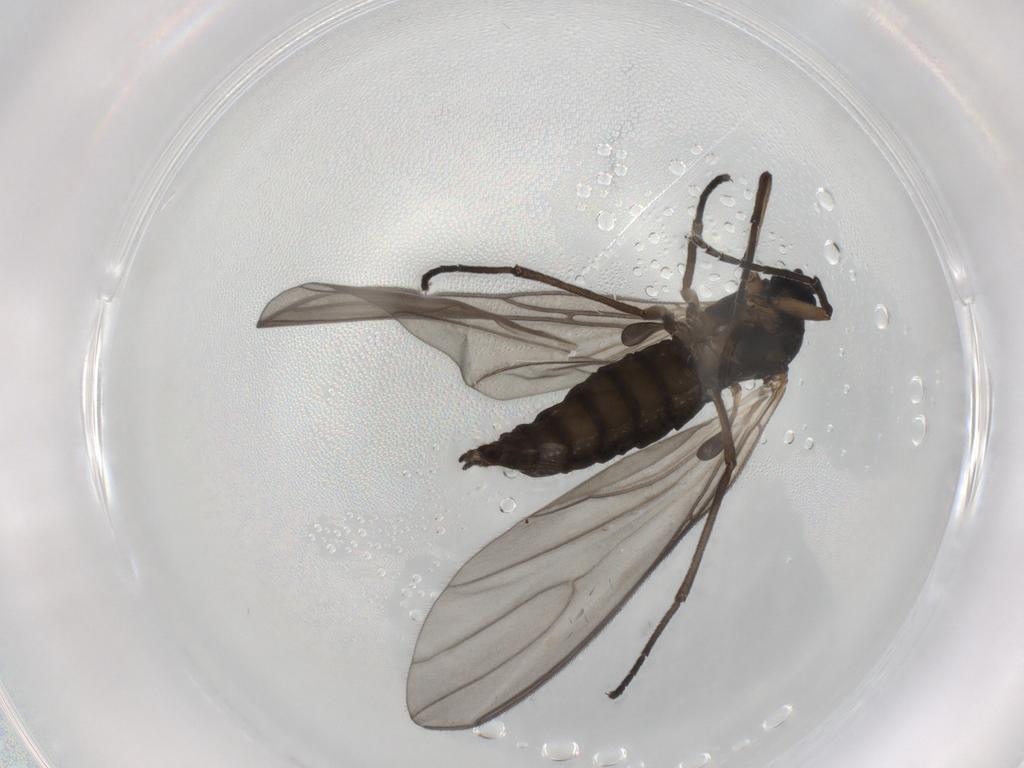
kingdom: Animalia
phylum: Arthropoda
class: Insecta
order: Diptera
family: Sciaridae
